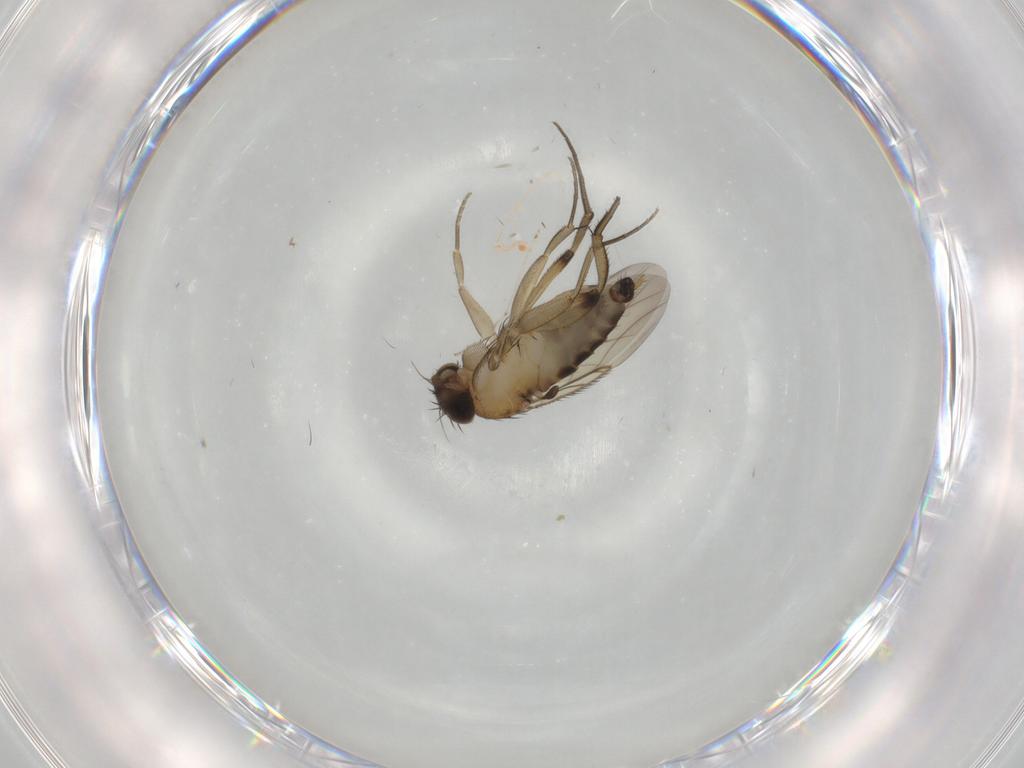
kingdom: Animalia
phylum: Arthropoda
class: Insecta
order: Diptera
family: Phoridae
